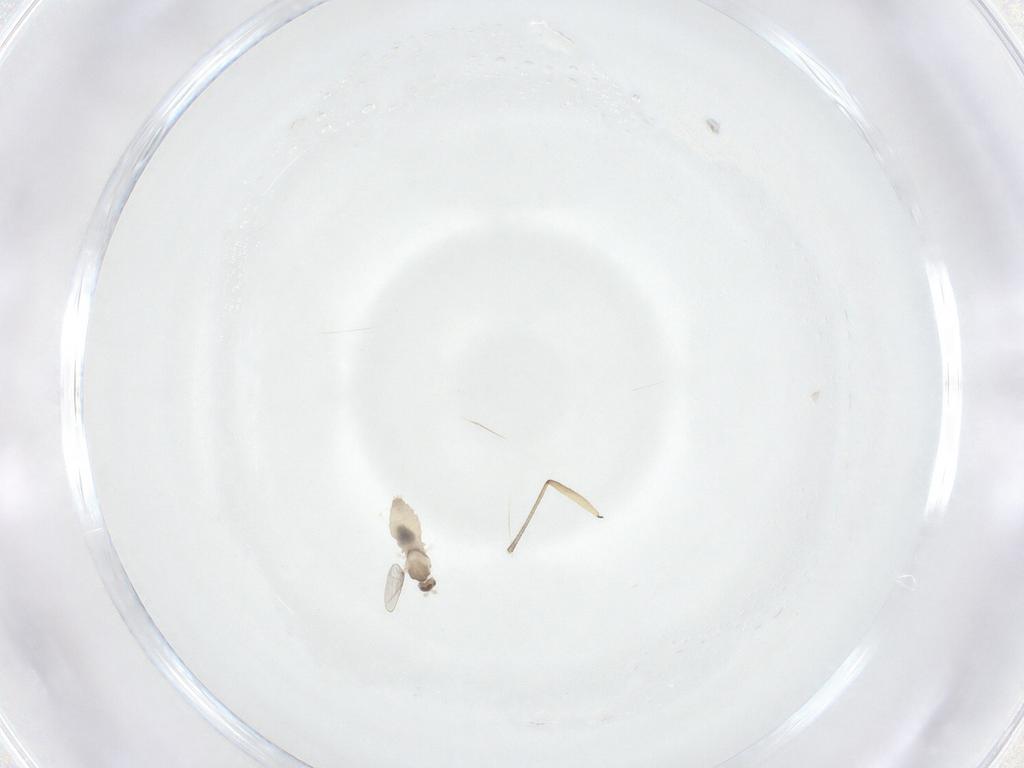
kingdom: Animalia
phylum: Arthropoda
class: Insecta
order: Diptera
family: Cecidomyiidae
